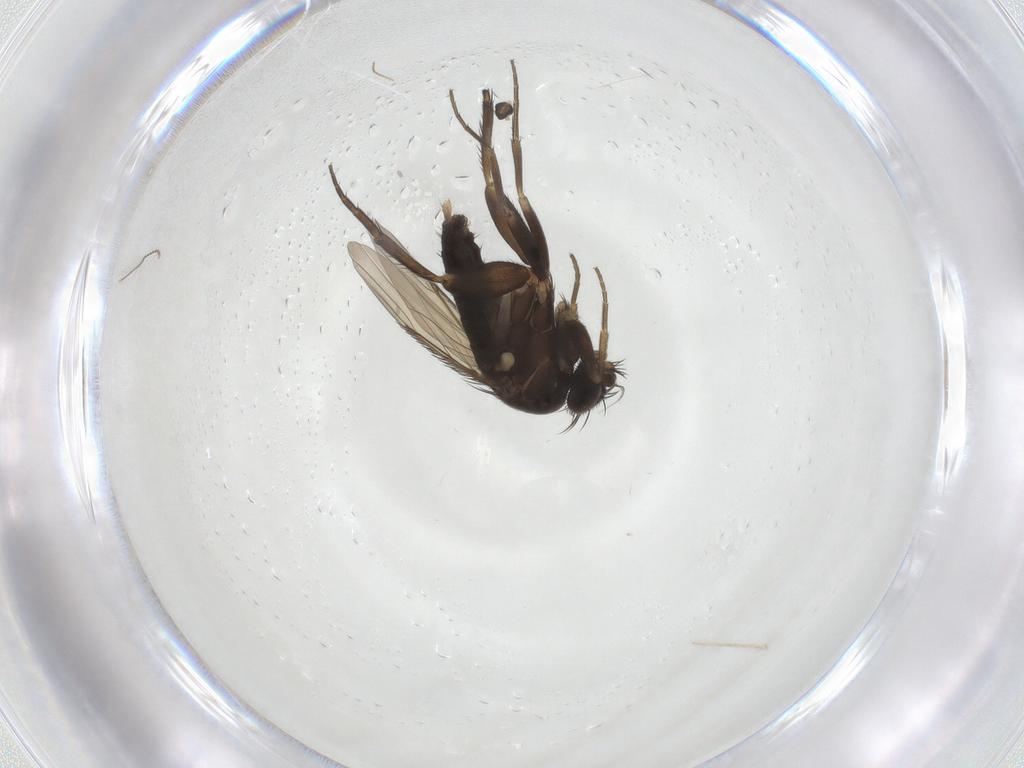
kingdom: Animalia
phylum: Arthropoda
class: Insecta
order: Diptera
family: Cecidomyiidae
